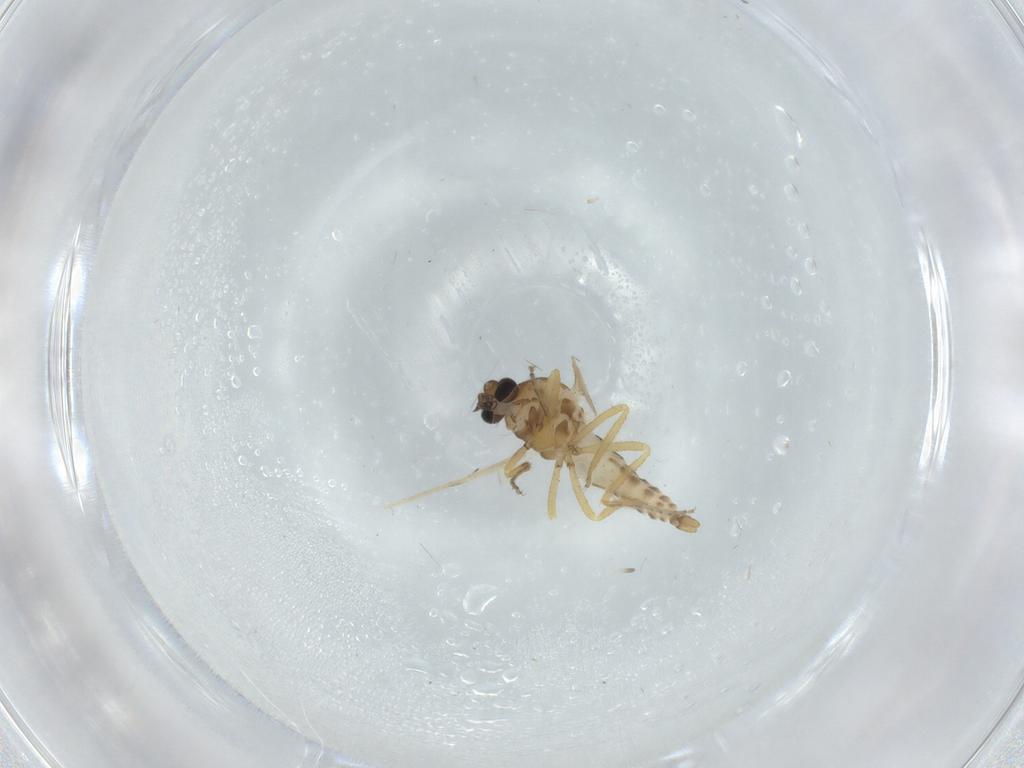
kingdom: Animalia
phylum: Arthropoda
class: Insecta
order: Diptera
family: Ceratopogonidae
